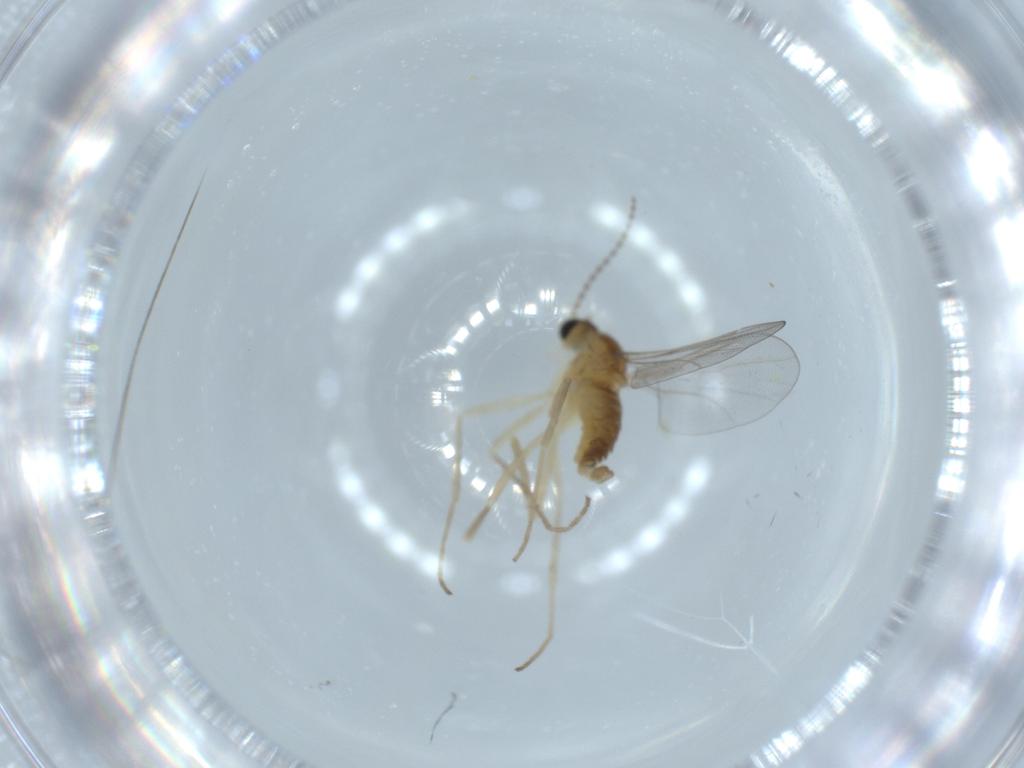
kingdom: Animalia
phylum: Arthropoda
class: Insecta
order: Diptera
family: Cecidomyiidae
